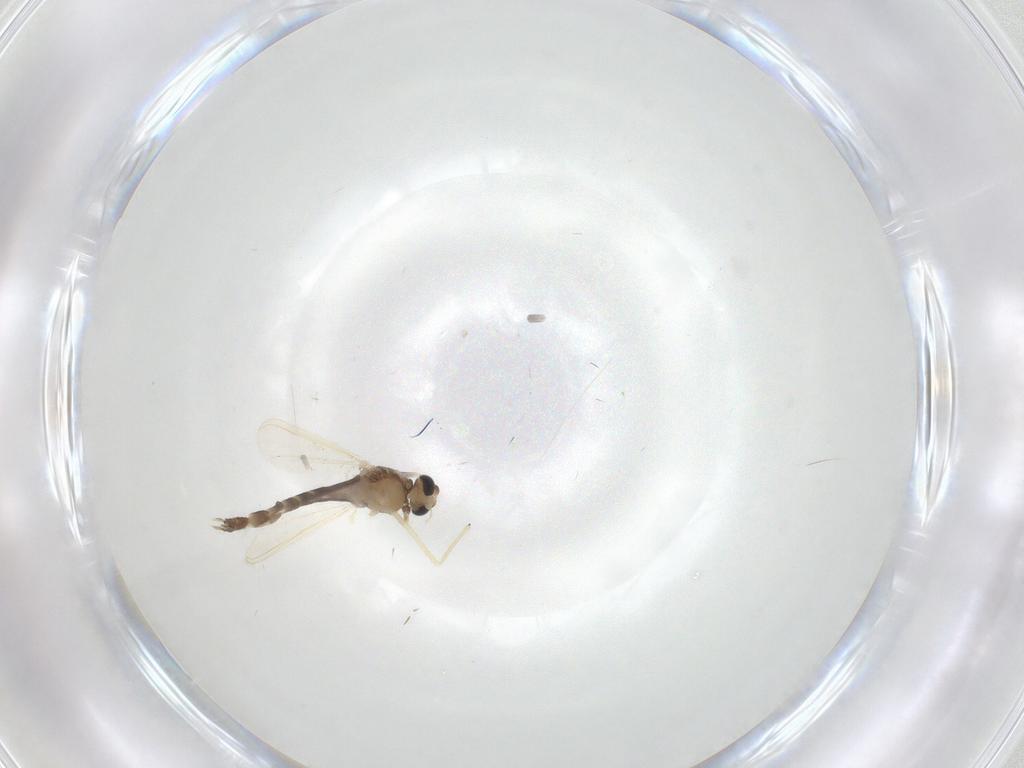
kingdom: Animalia
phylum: Arthropoda
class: Insecta
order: Diptera
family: Chironomidae
